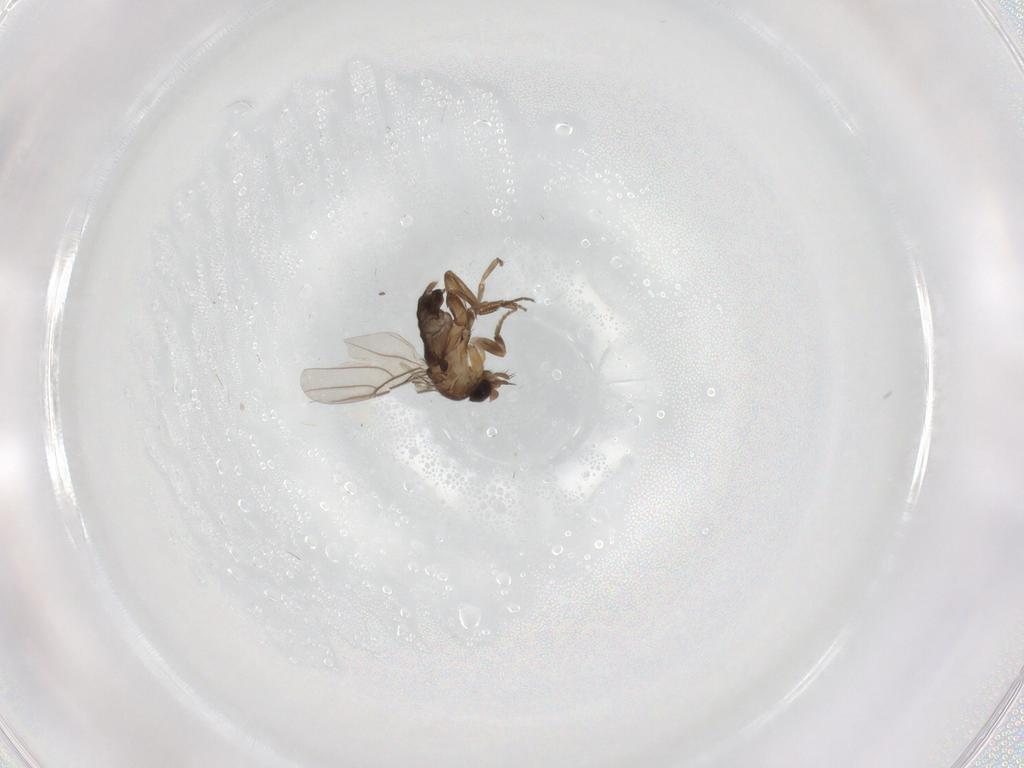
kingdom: Animalia
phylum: Arthropoda
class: Insecta
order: Diptera
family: Phoridae
